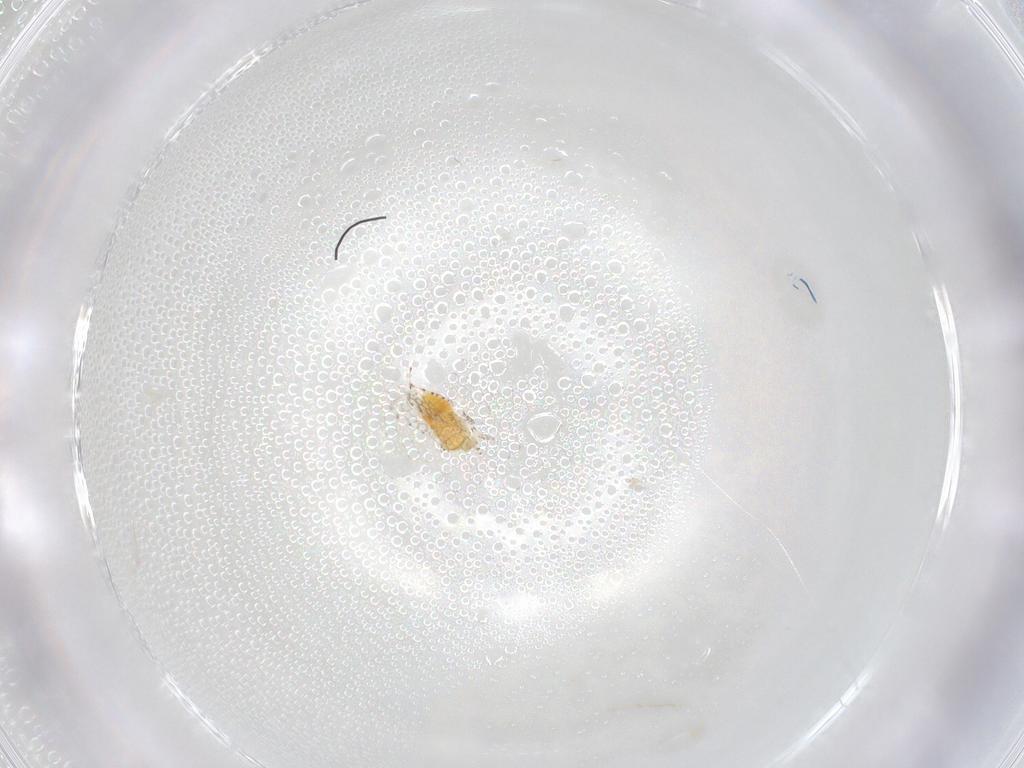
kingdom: Animalia
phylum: Arthropoda
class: Insecta
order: Hymenoptera
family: Aphelinidae
